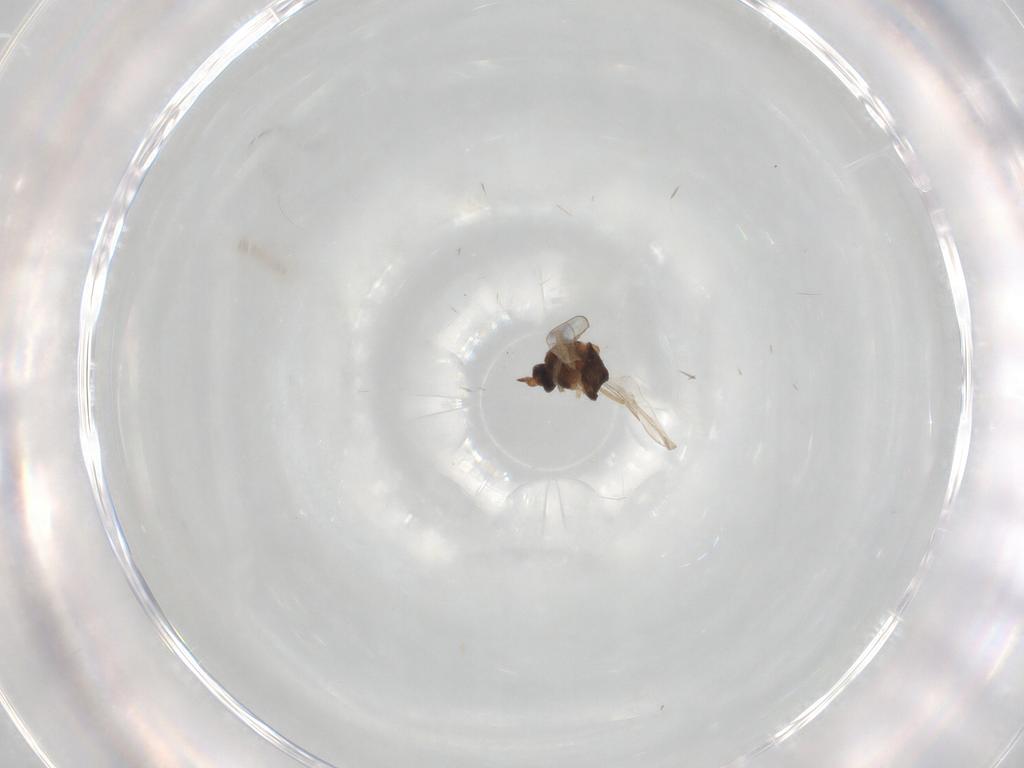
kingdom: Animalia
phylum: Arthropoda
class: Insecta
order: Diptera
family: Ceratopogonidae
